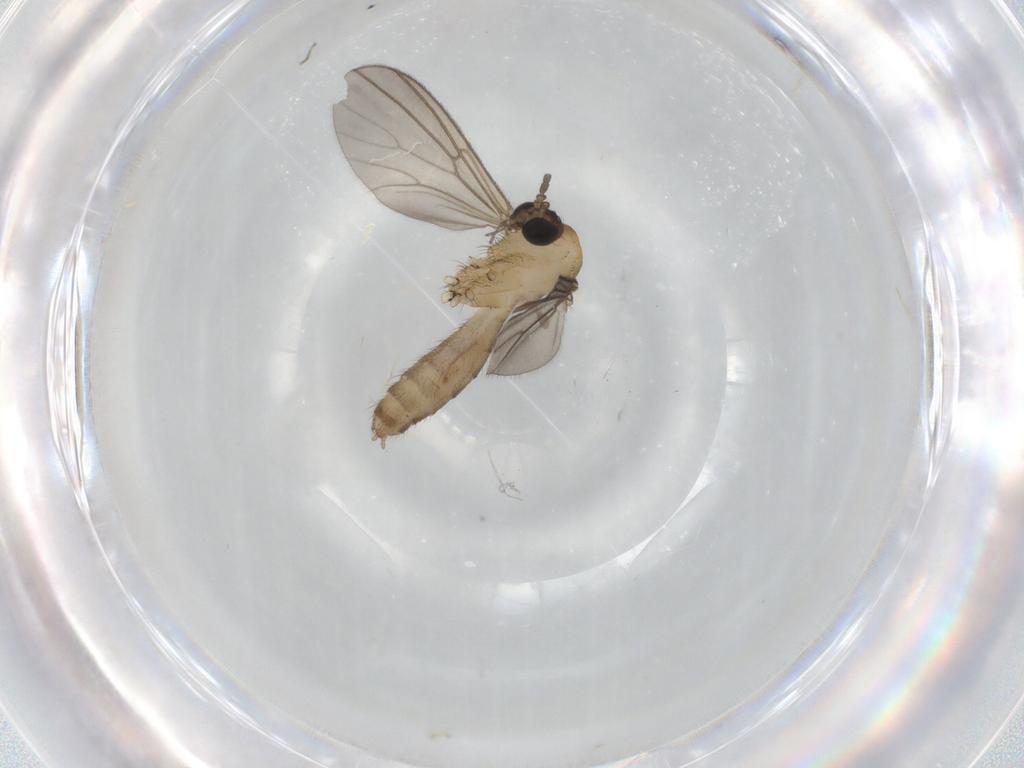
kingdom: Animalia
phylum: Arthropoda
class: Insecta
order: Diptera
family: Mycetophilidae
